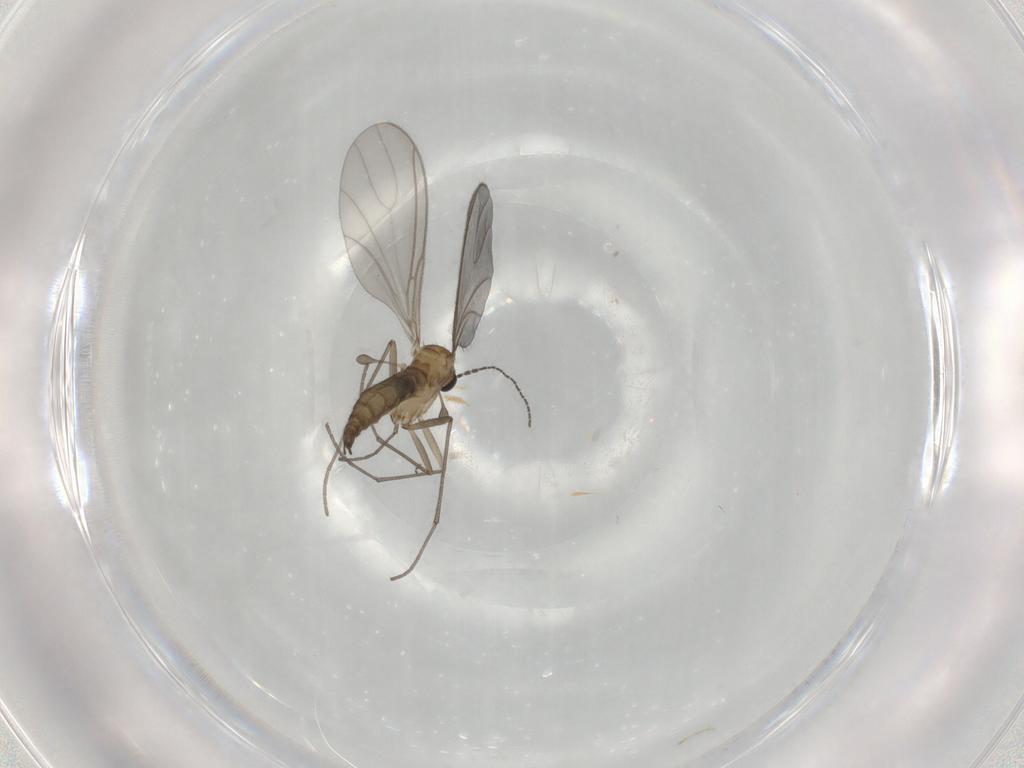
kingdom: Animalia
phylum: Arthropoda
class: Insecta
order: Diptera
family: Sciaridae
